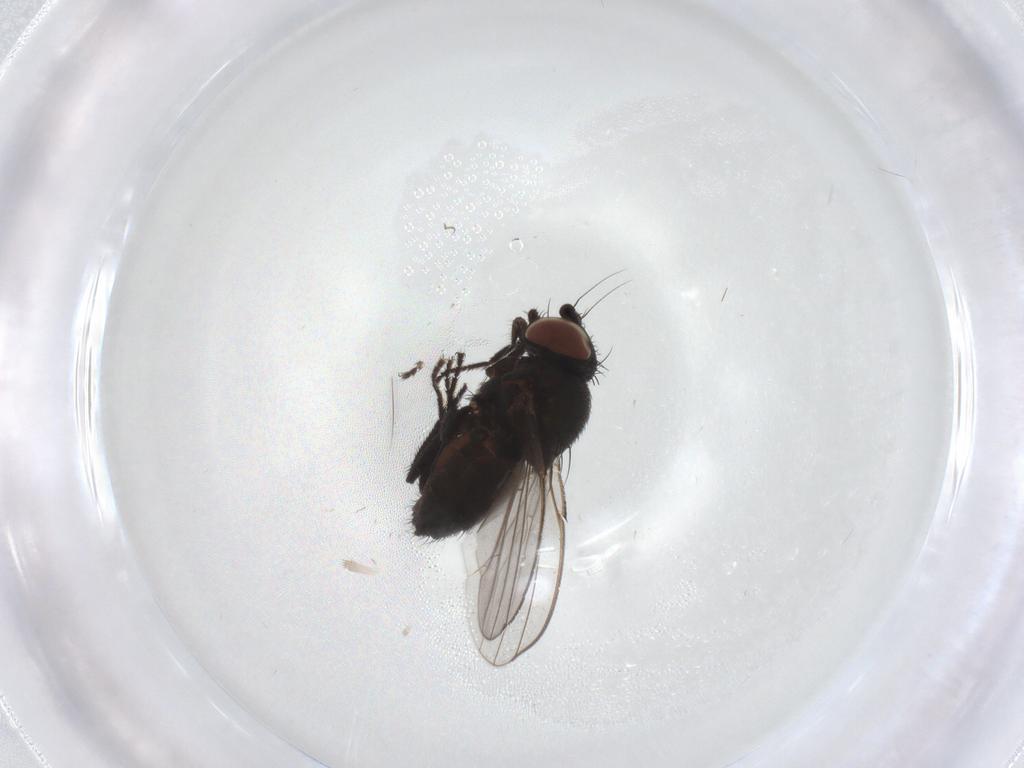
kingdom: Animalia
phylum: Arthropoda
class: Insecta
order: Diptera
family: Milichiidae
